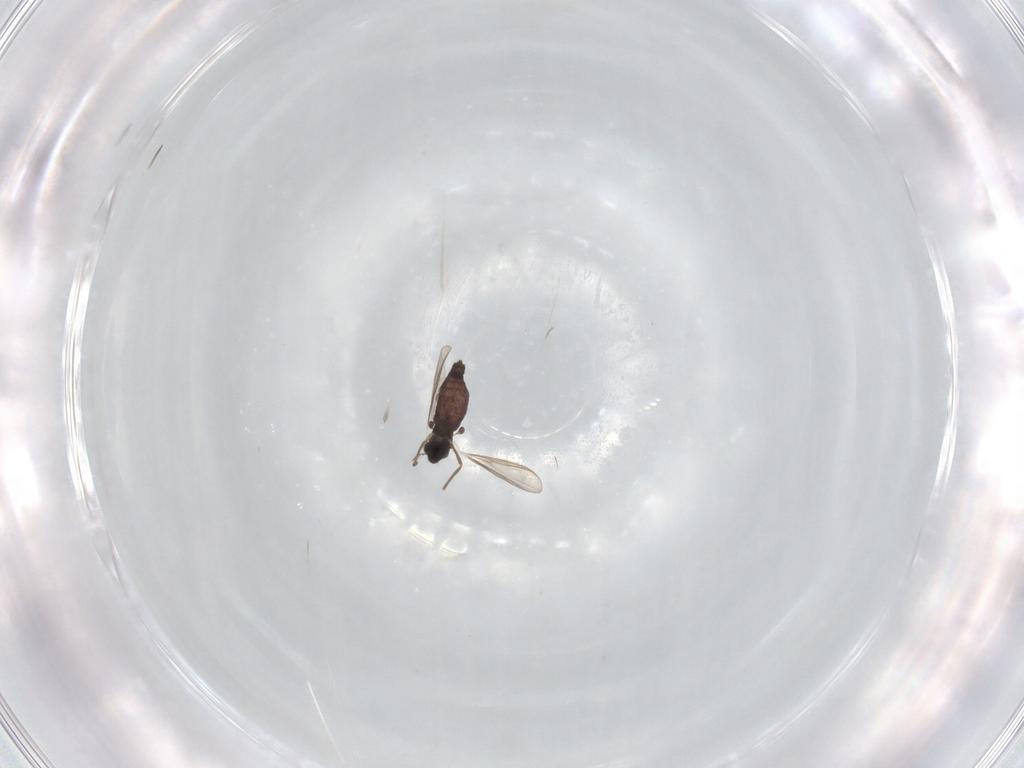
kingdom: Animalia
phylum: Arthropoda
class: Insecta
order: Diptera
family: Chironomidae
